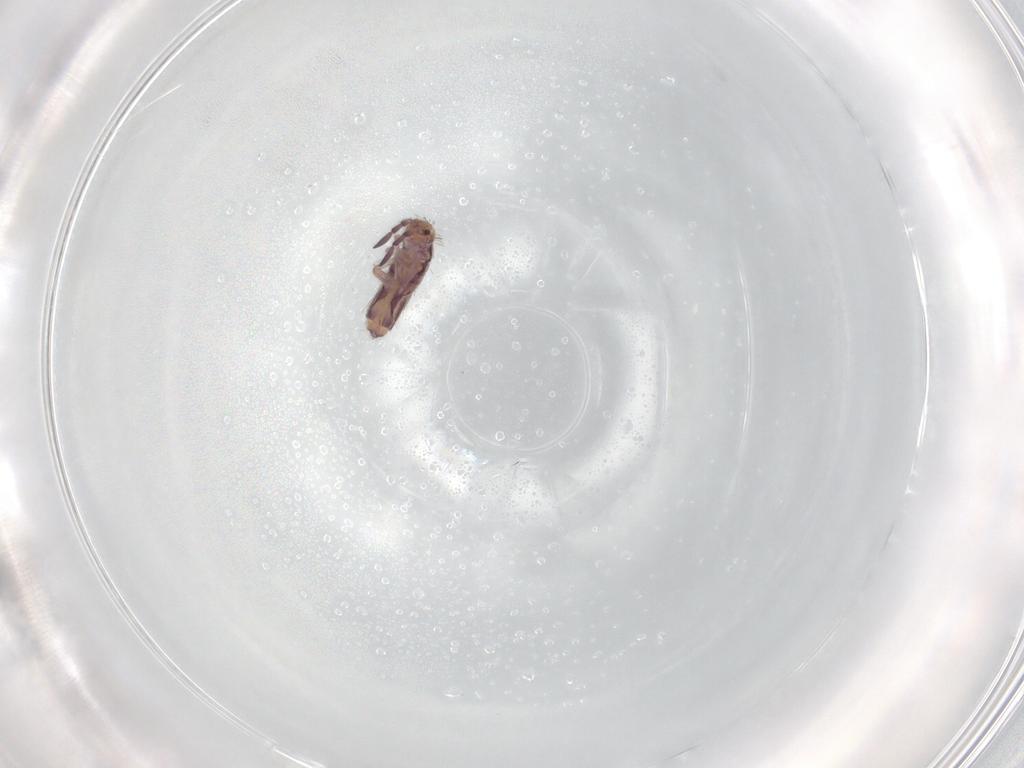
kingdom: Animalia
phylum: Arthropoda
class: Collembola
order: Entomobryomorpha
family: Entomobryidae
